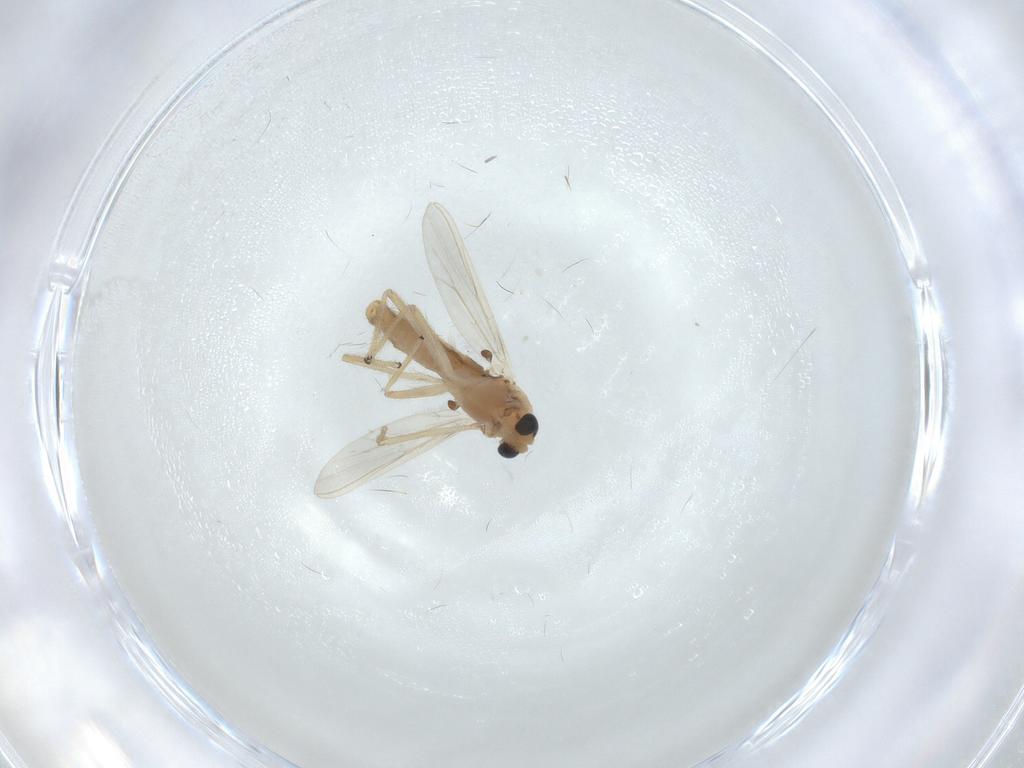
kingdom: Animalia
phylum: Arthropoda
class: Insecta
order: Diptera
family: Chironomidae
